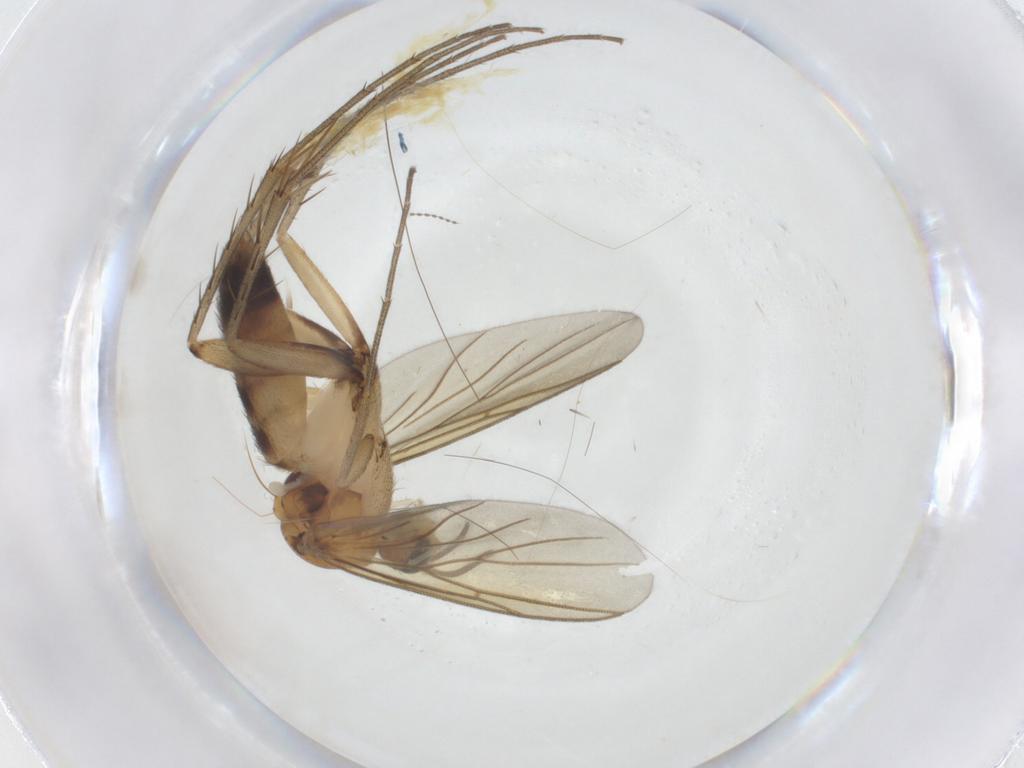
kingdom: Animalia
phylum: Arthropoda
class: Insecta
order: Diptera
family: Mycetophilidae
